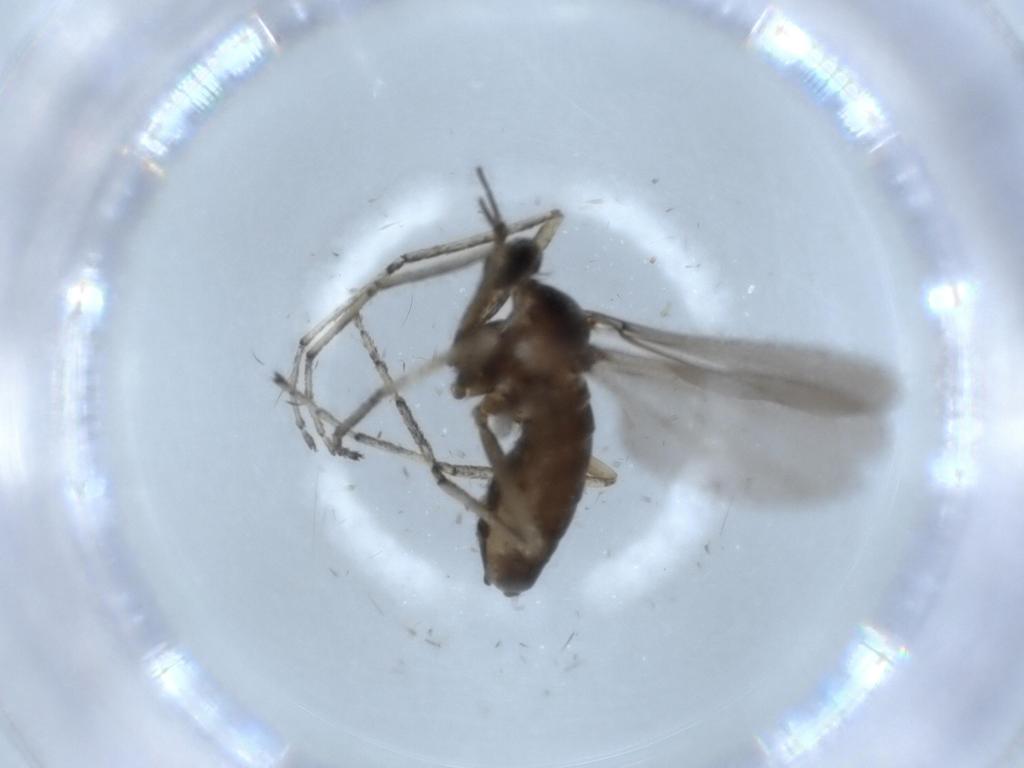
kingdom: Animalia
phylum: Arthropoda
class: Insecta
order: Diptera
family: Cecidomyiidae
